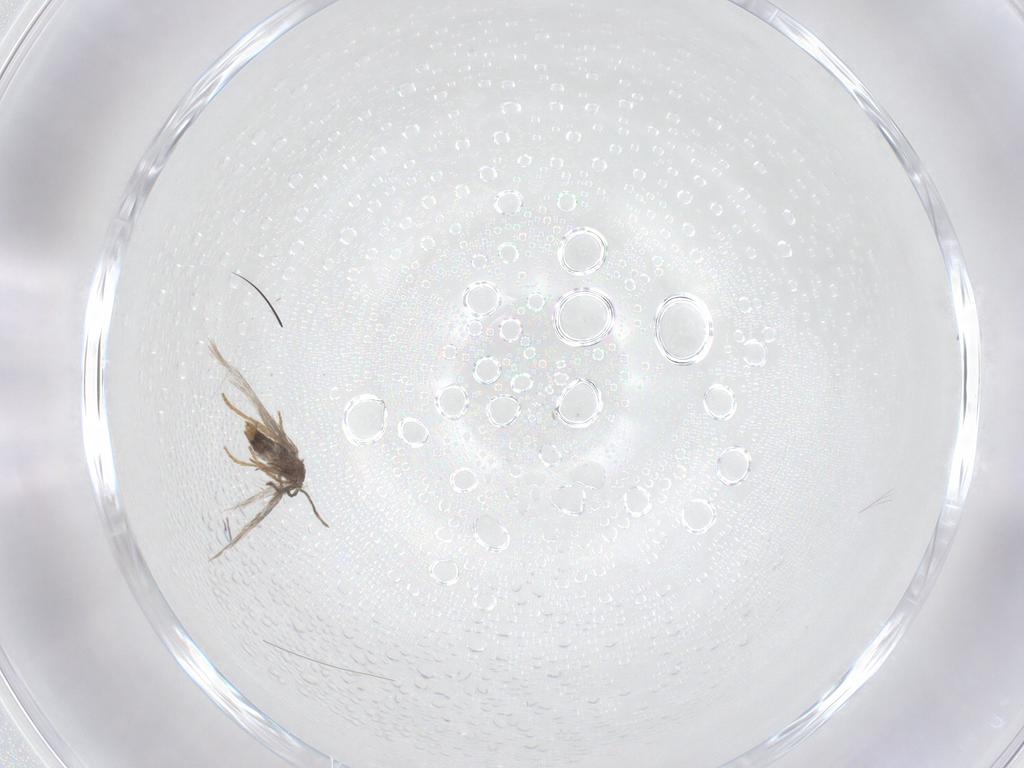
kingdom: Animalia
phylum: Arthropoda
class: Insecta
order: Lepidoptera
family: Nepticulidae
